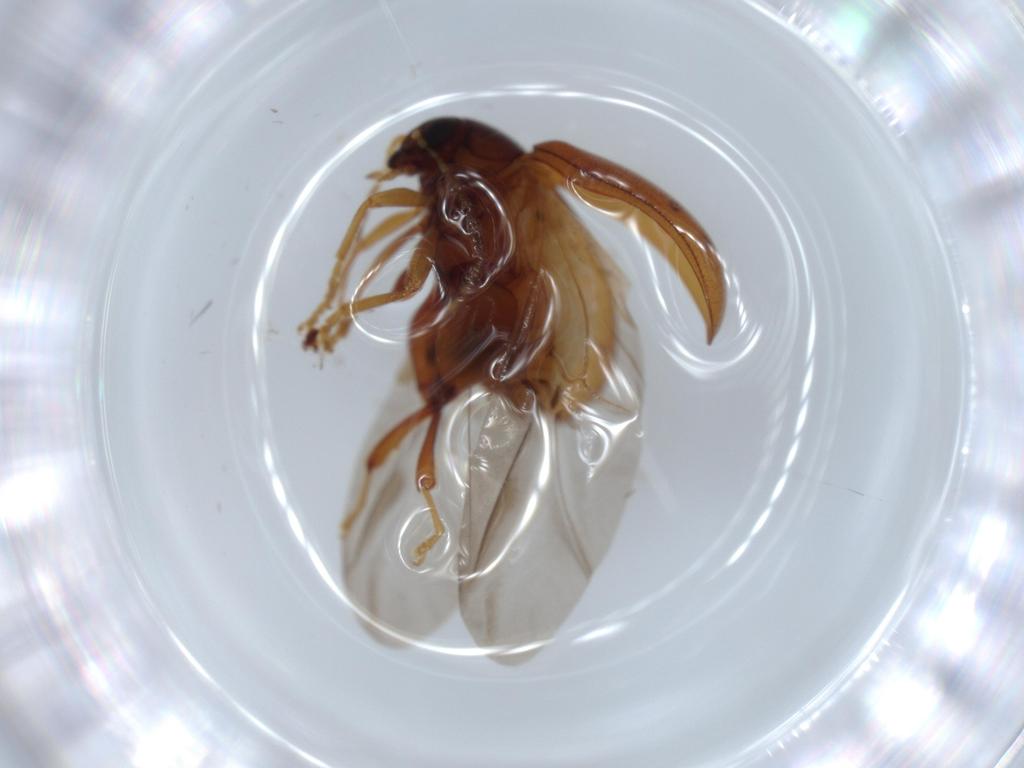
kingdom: Animalia
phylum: Arthropoda
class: Insecta
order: Coleoptera
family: Chrysomelidae
